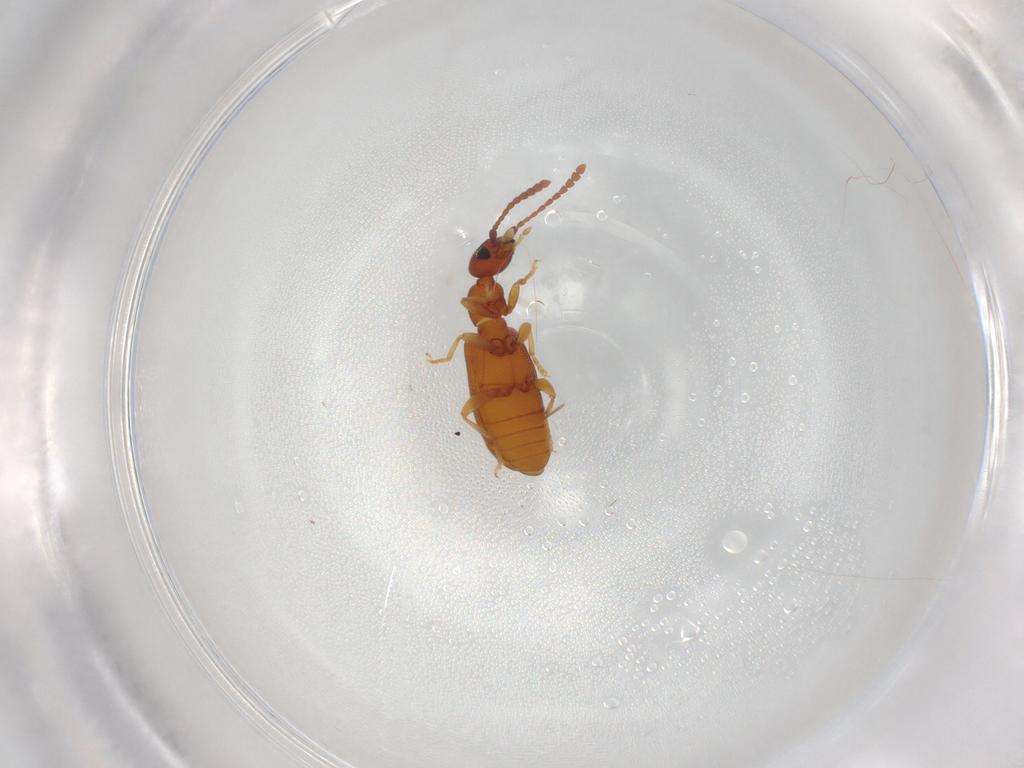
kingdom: Animalia
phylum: Arthropoda
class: Insecta
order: Coleoptera
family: Anthicidae
